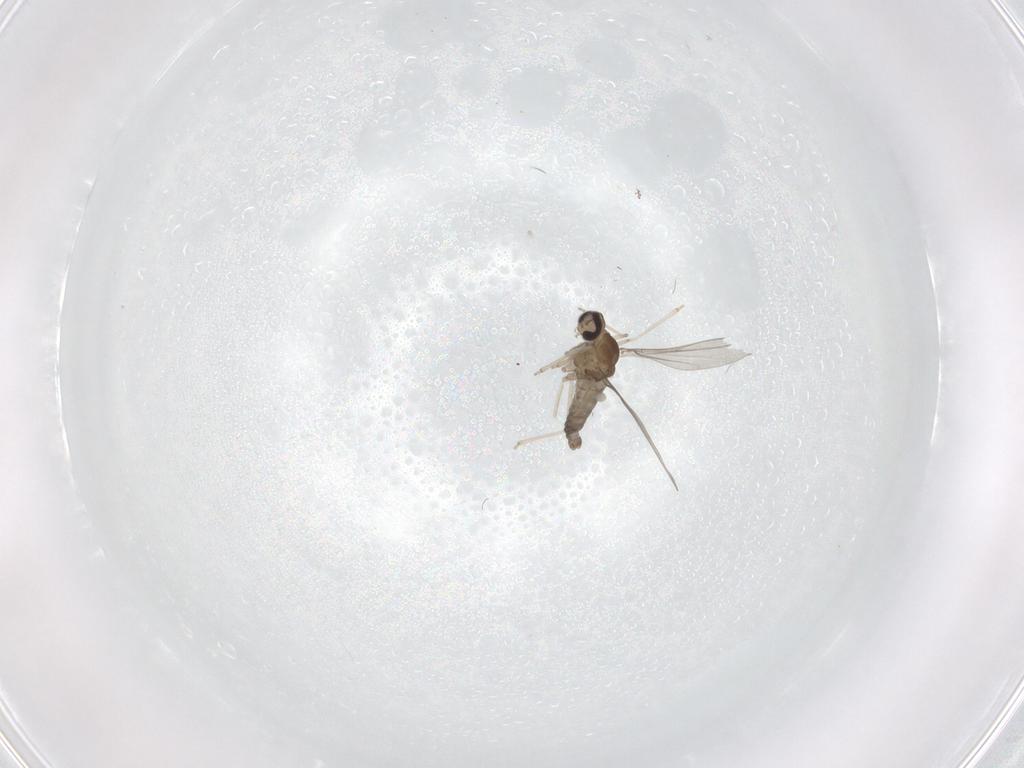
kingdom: Animalia
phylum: Arthropoda
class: Insecta
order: Diptera
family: Cecidomyiidae
